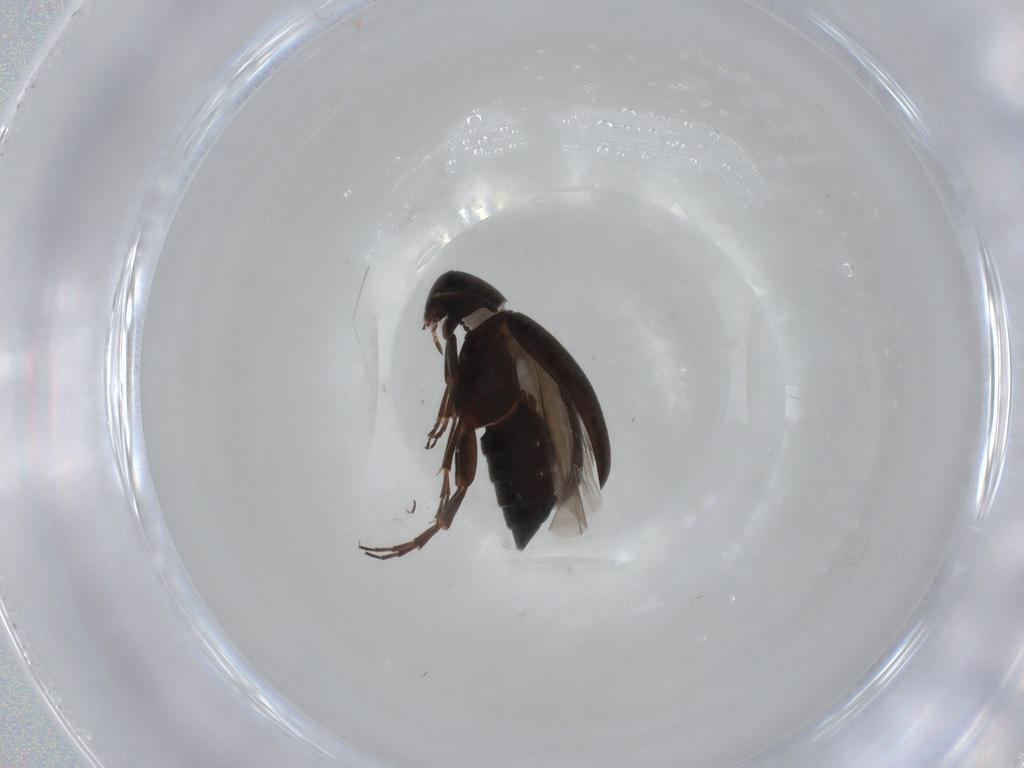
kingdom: Animalia
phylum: Arthropoda
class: Insecta
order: Coleoptera
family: Scraptiidae
